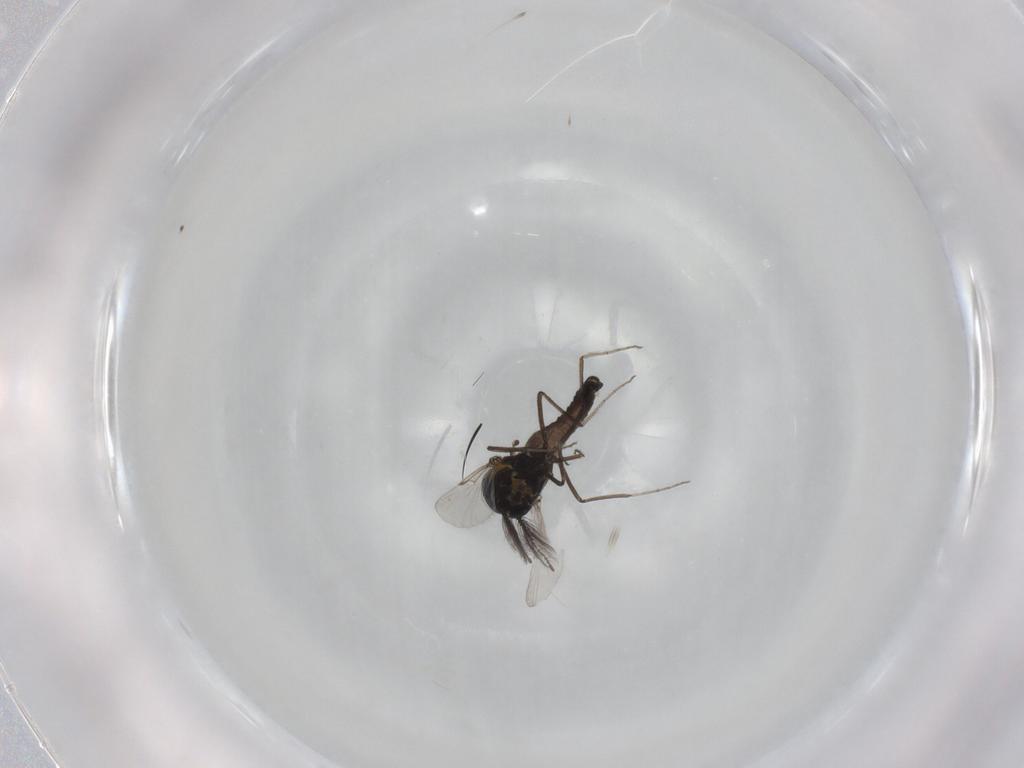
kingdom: Animalia
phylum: Arthropoda
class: Insecta
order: Diptera
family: Ceratopogonidae
